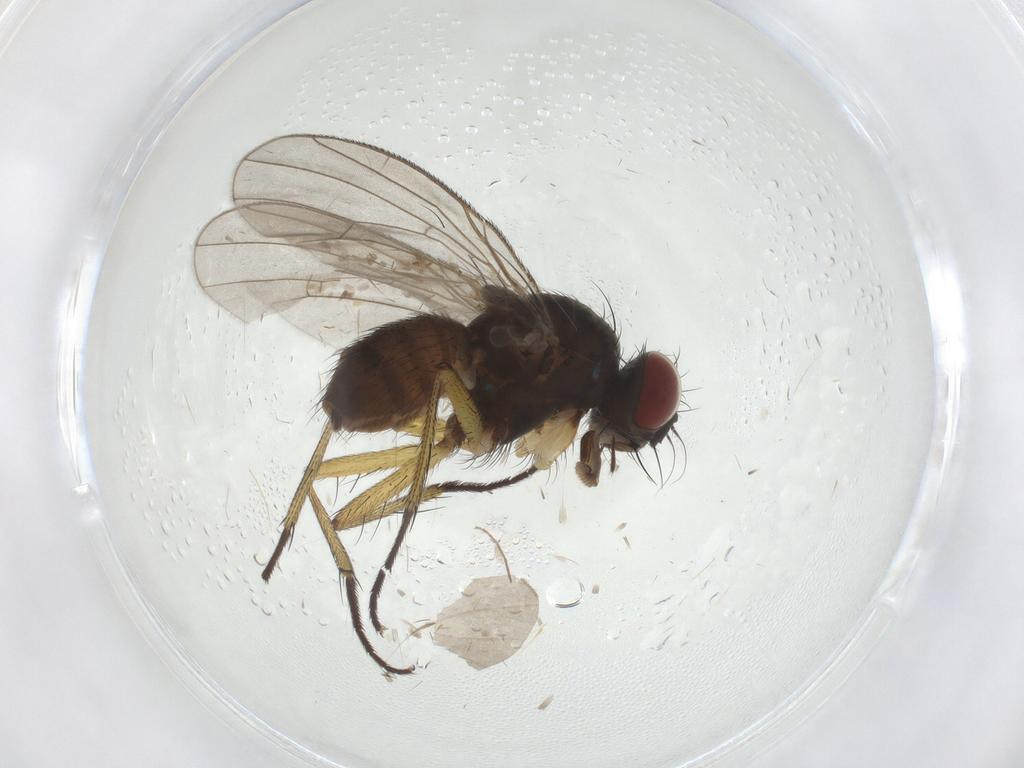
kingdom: Animalia
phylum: Arthropoda
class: Insecta
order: Diptera
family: Muscidae
